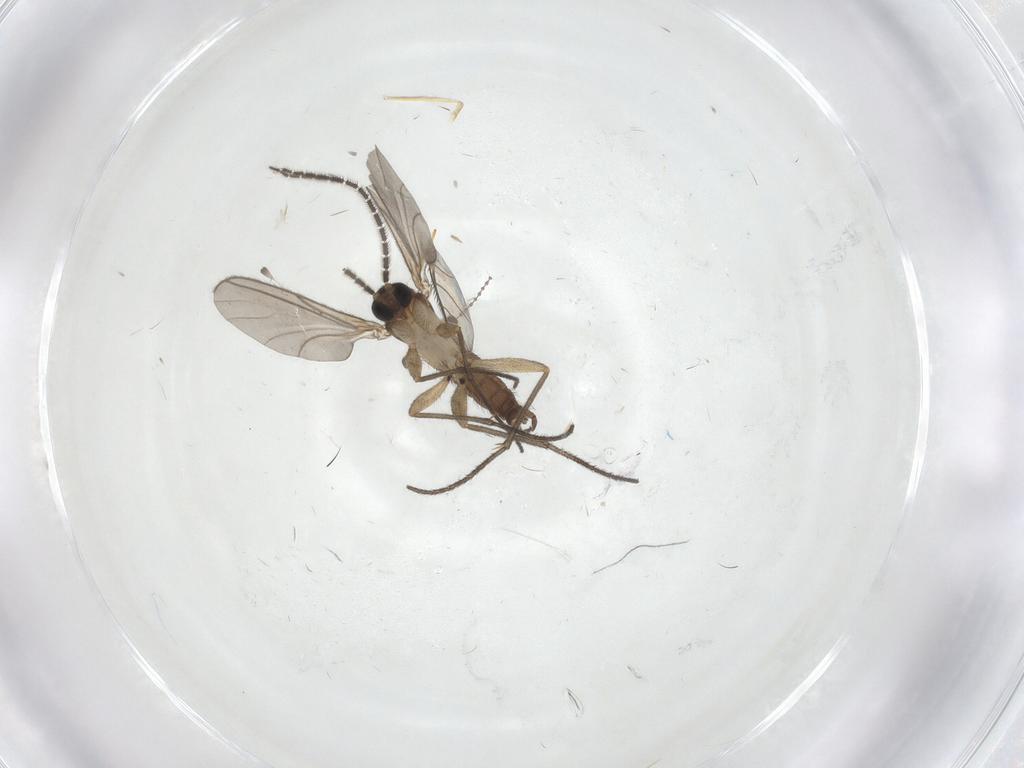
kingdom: Animalia
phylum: Arthropoda
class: Insecta
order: Diptera
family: Sciaridae
